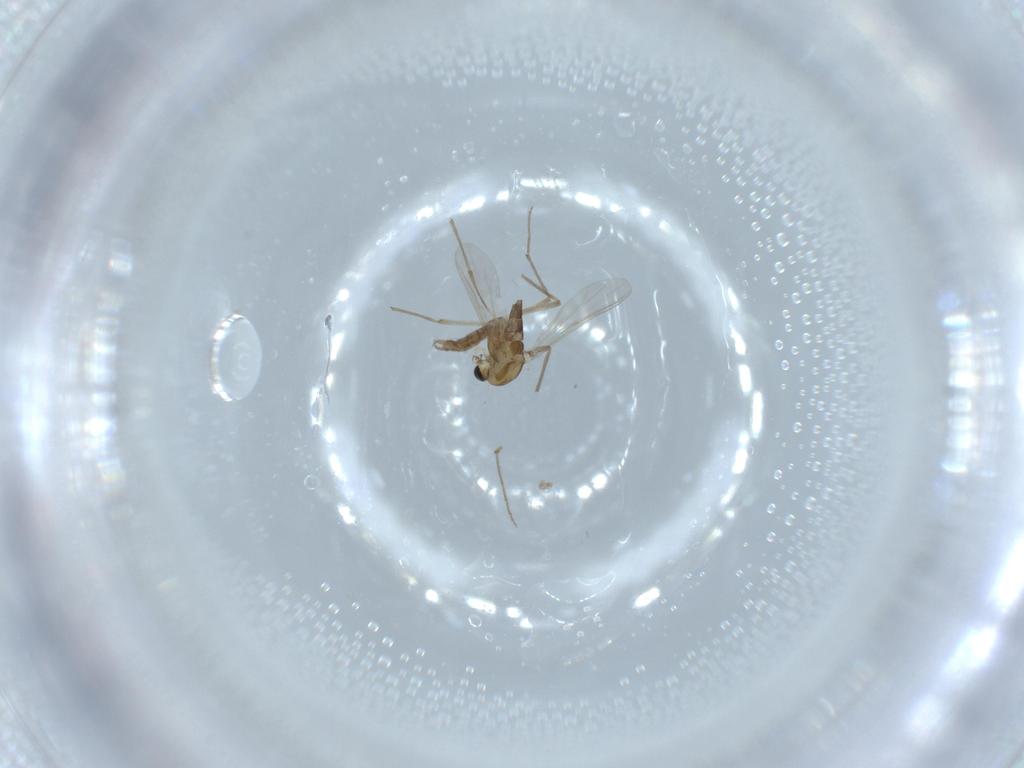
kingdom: Animalia
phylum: Arthropoda
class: Insecta
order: Diptera
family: Chironomidae
